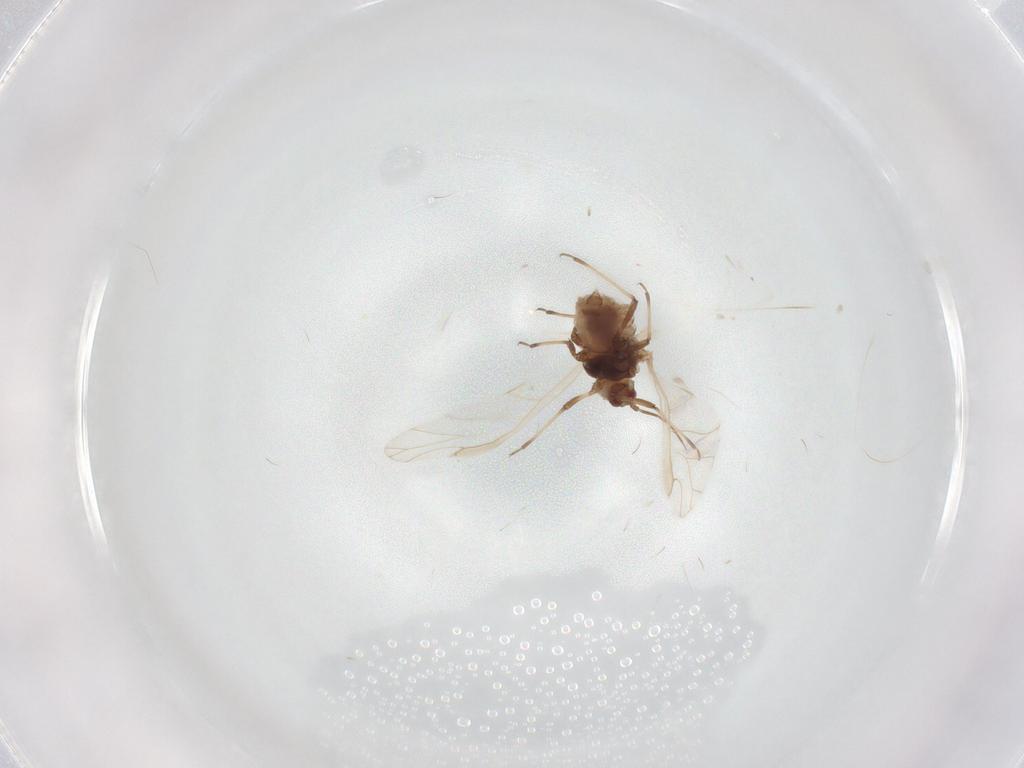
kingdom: Animalia
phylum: Arthropoda
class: Insecta
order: Hemiptera
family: Aphididae
